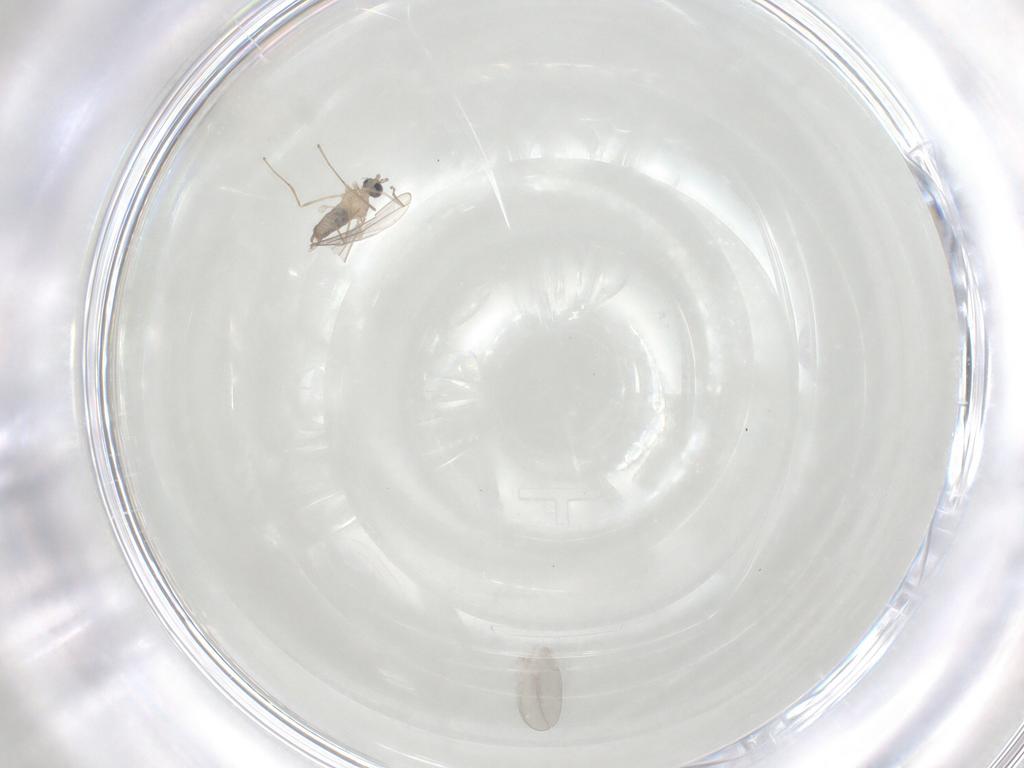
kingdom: Animalia
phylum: Arthropoda
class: Insecta
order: Diptera
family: Cecidomyiidae
